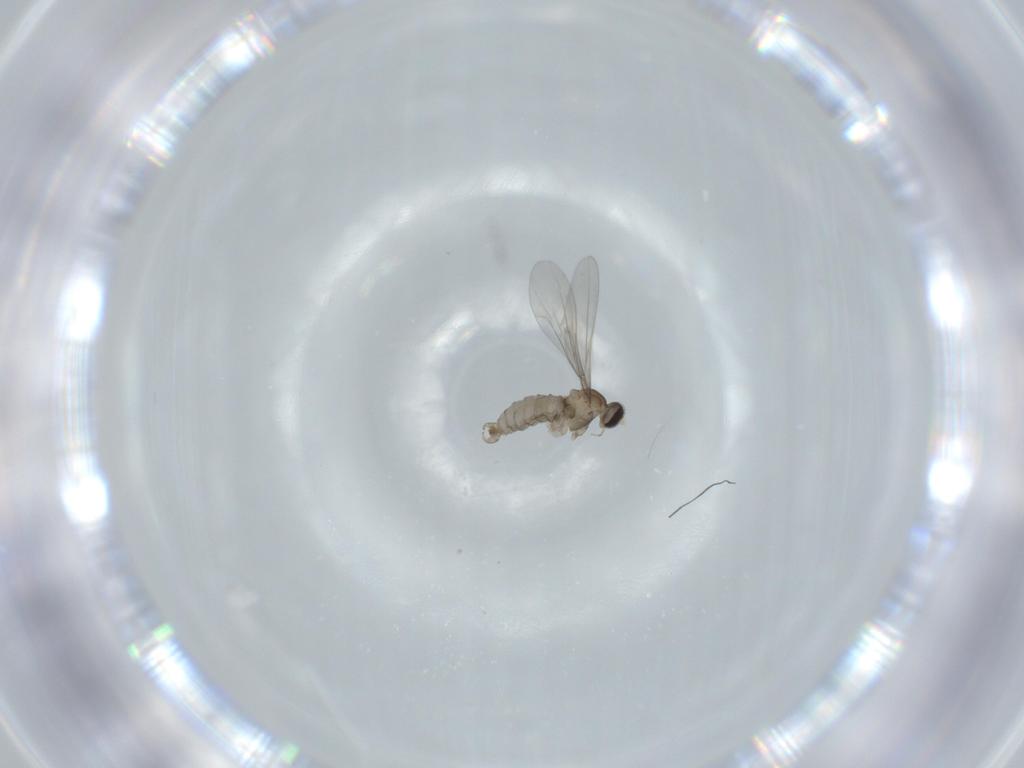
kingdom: Animalia
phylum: Arthropoda
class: Insecta
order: Diptera
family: Cecidomyiidae
